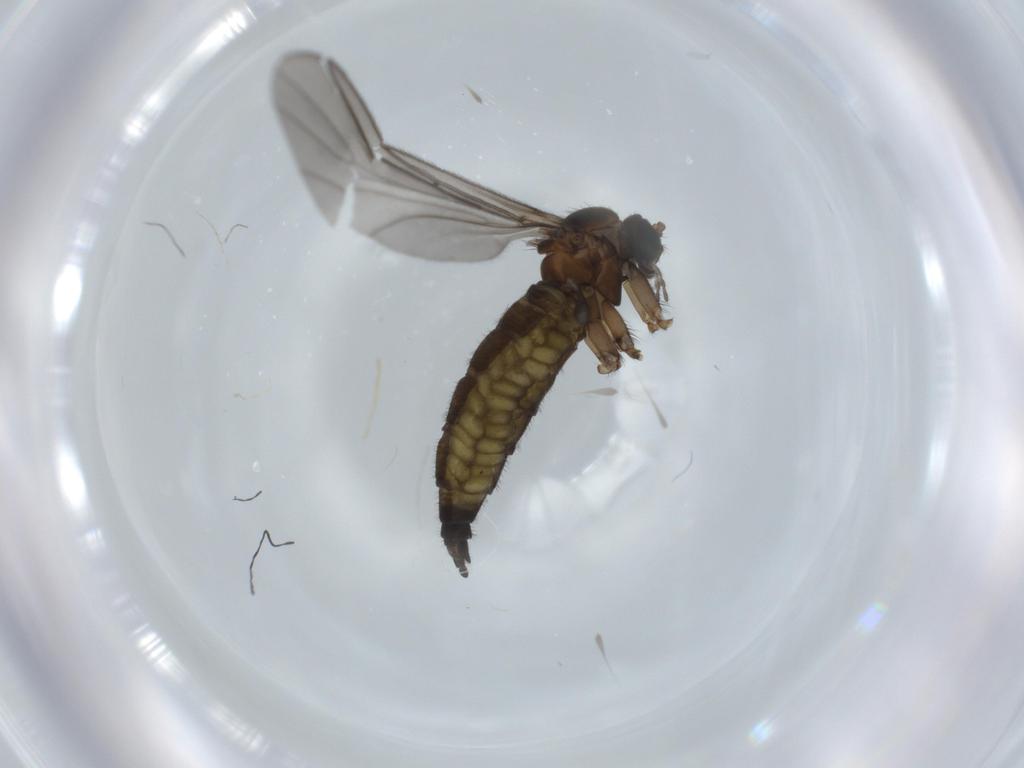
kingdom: Animalia
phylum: Arthropoda
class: Insecta
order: Diptera
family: Sciaridae
